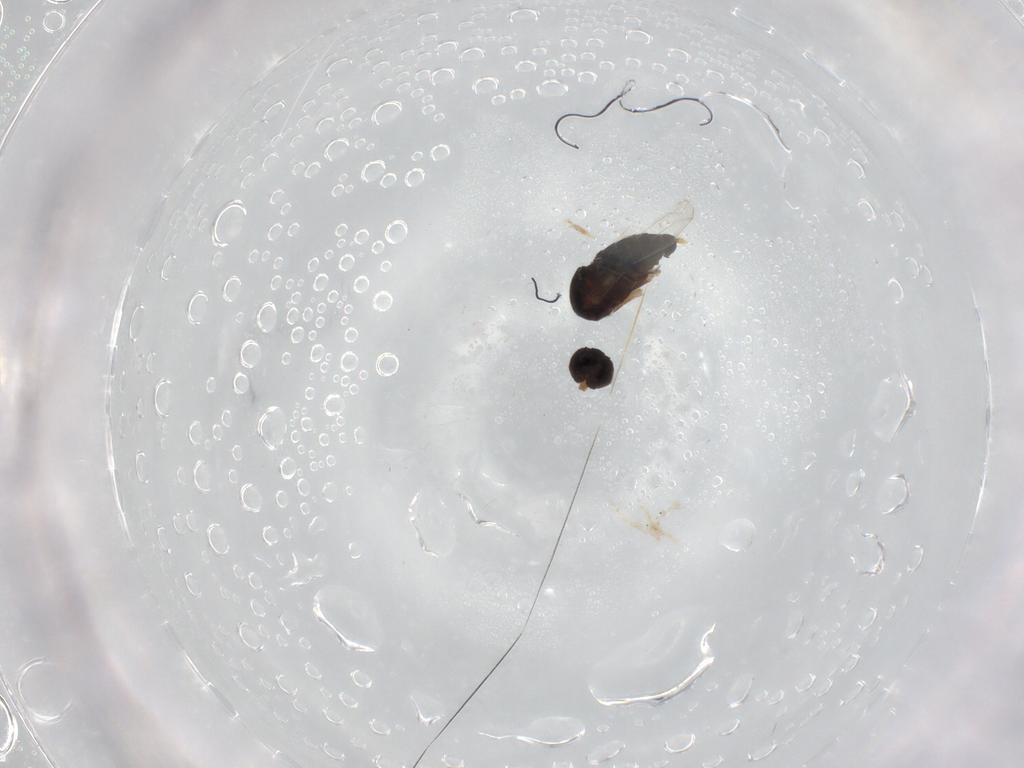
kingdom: Animalia
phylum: Arthropoda
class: Insecta
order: Diptera
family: Phoridae
